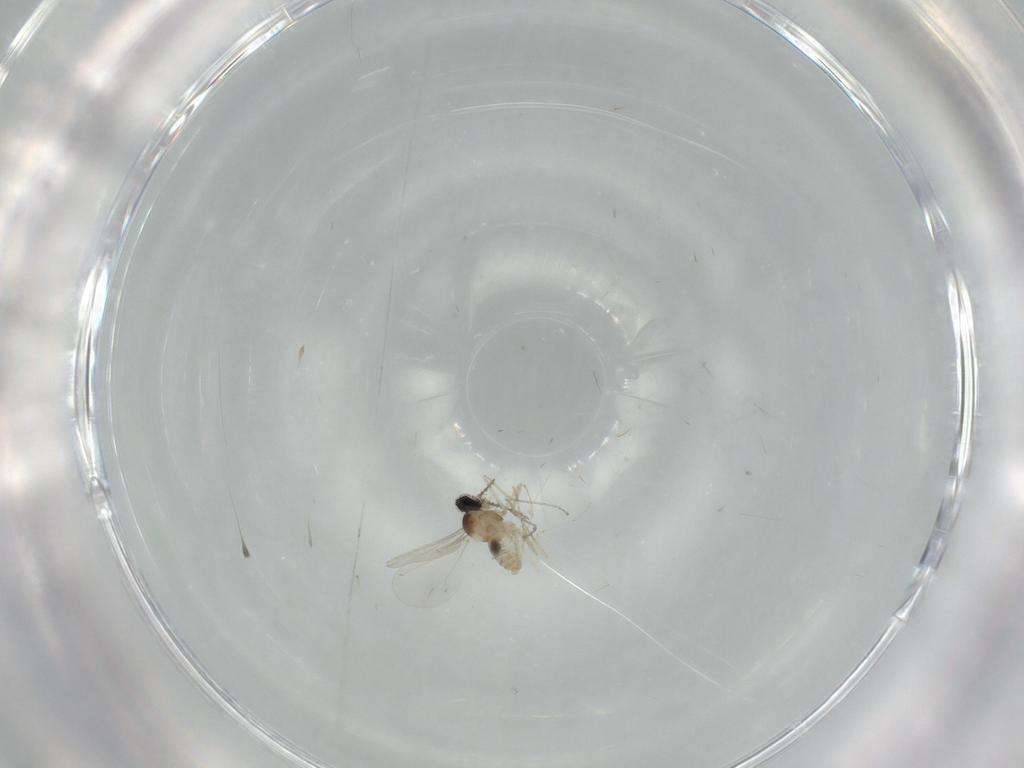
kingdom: Animalia
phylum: Arthropoda
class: Insecta
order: Diptera
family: Cecidomyiidae
